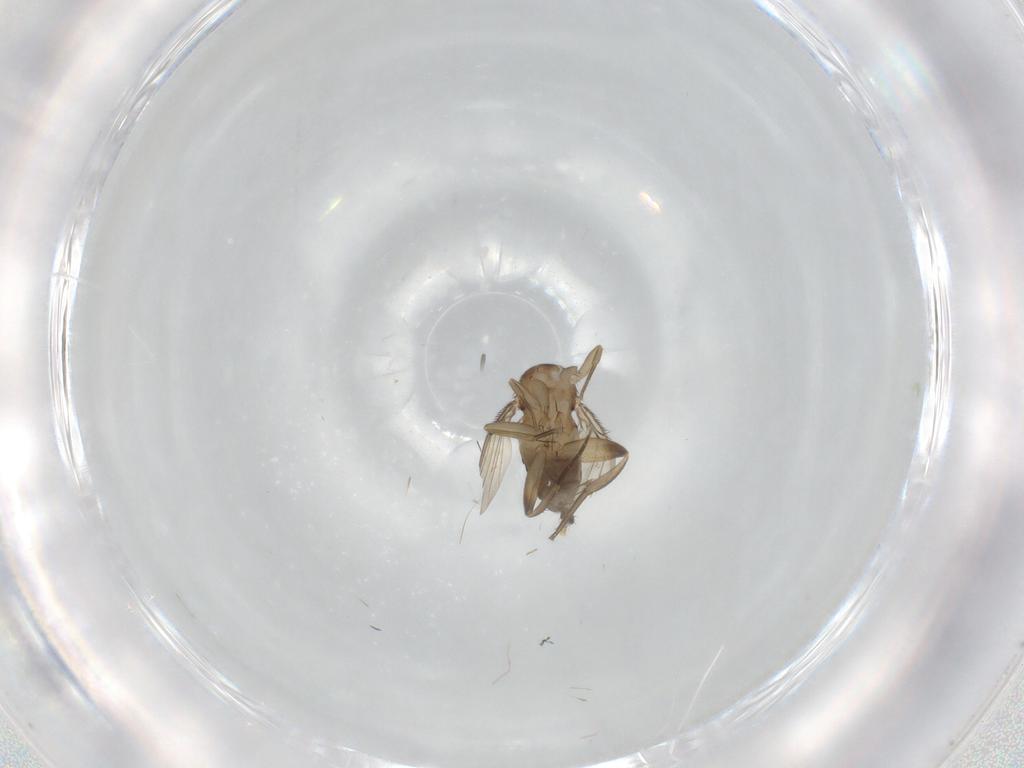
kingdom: Animalia
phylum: Arthropoda
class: Insecta
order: Diptera
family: Phoridae
